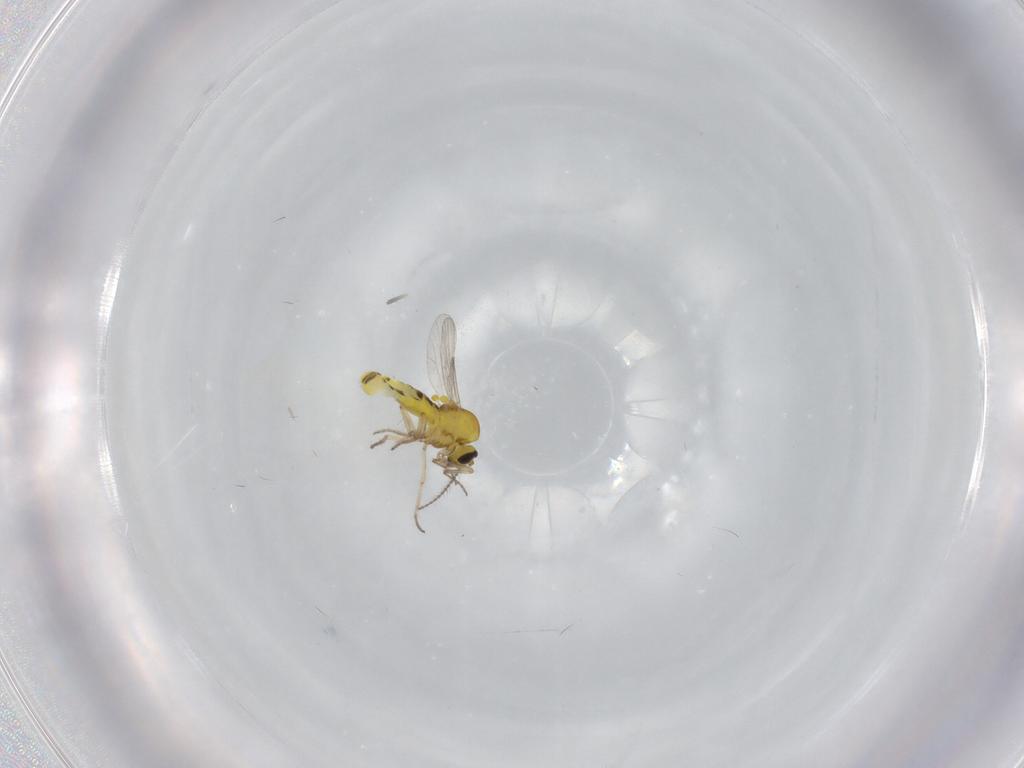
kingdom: Animalia
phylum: Arthropoda
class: Insecta
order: Diptera
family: Ceratopogonidae
